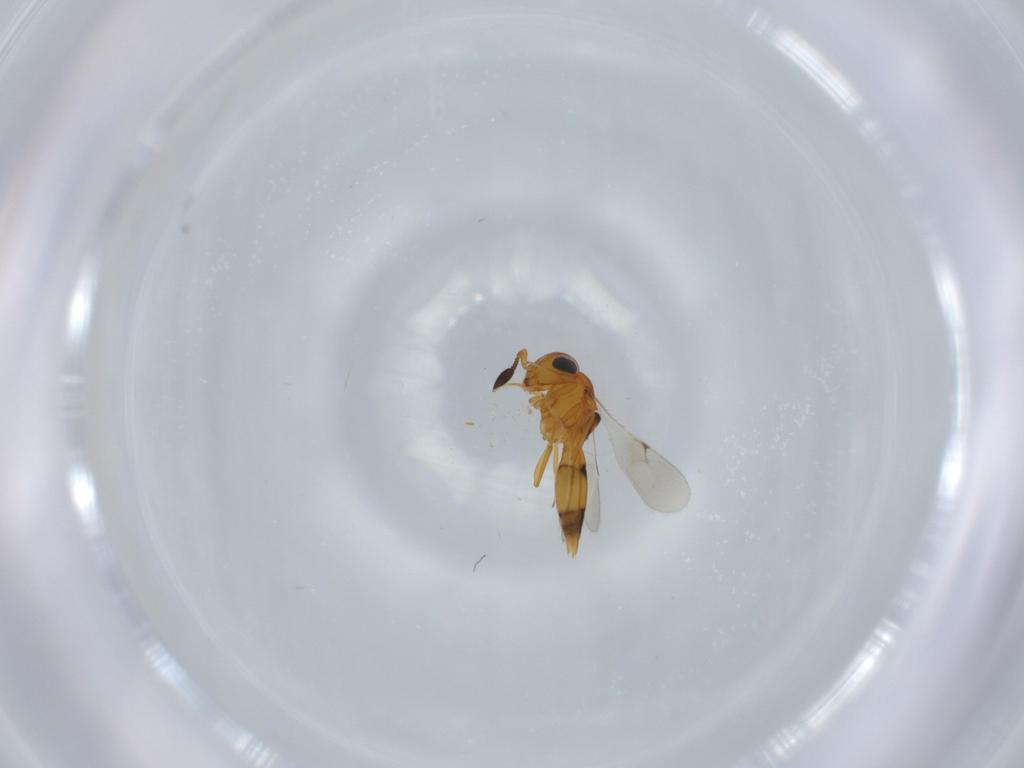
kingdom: Animalia
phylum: Arthropoda
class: Insecta
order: Hymenoptera
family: Scelionidae
